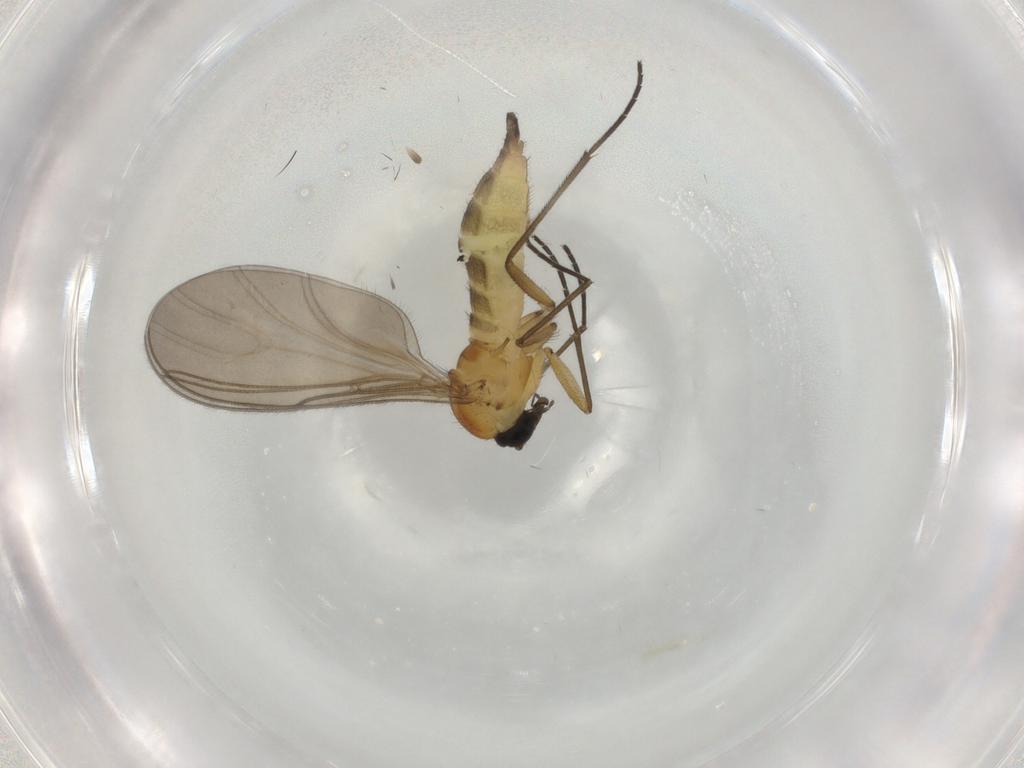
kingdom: Animalia
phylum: Arthropoda
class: Insecta
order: Diptera
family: Sciaridae
